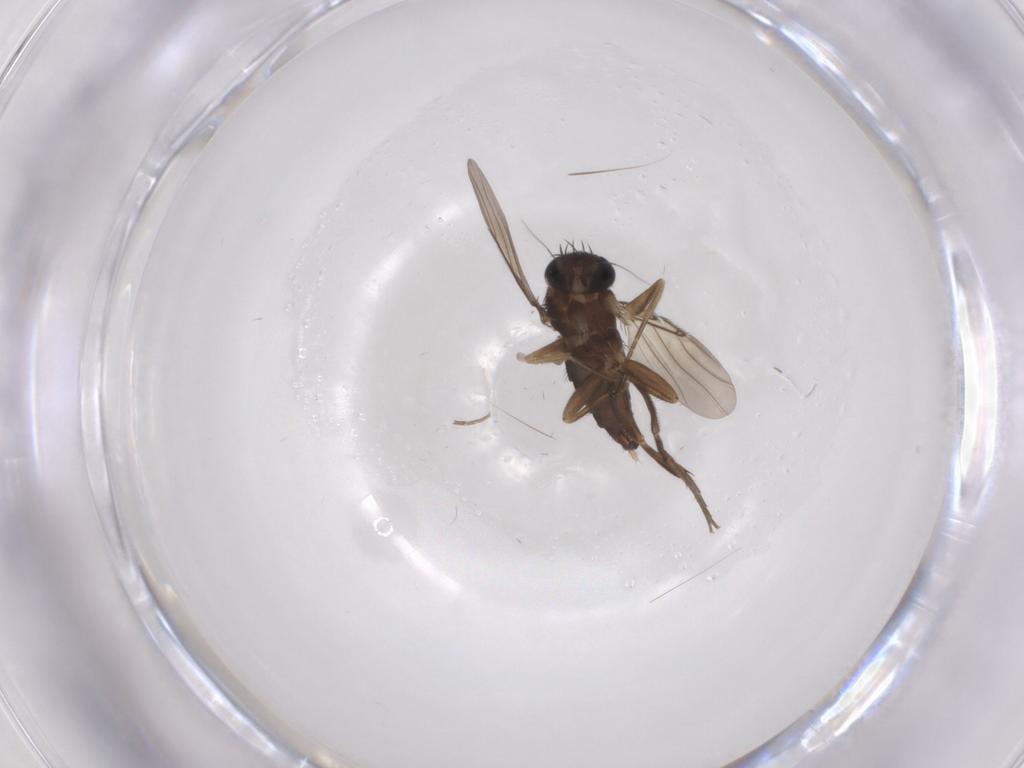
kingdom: Animalia
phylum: Arthropoda
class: Insecta
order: Diptera
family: Phoridae
